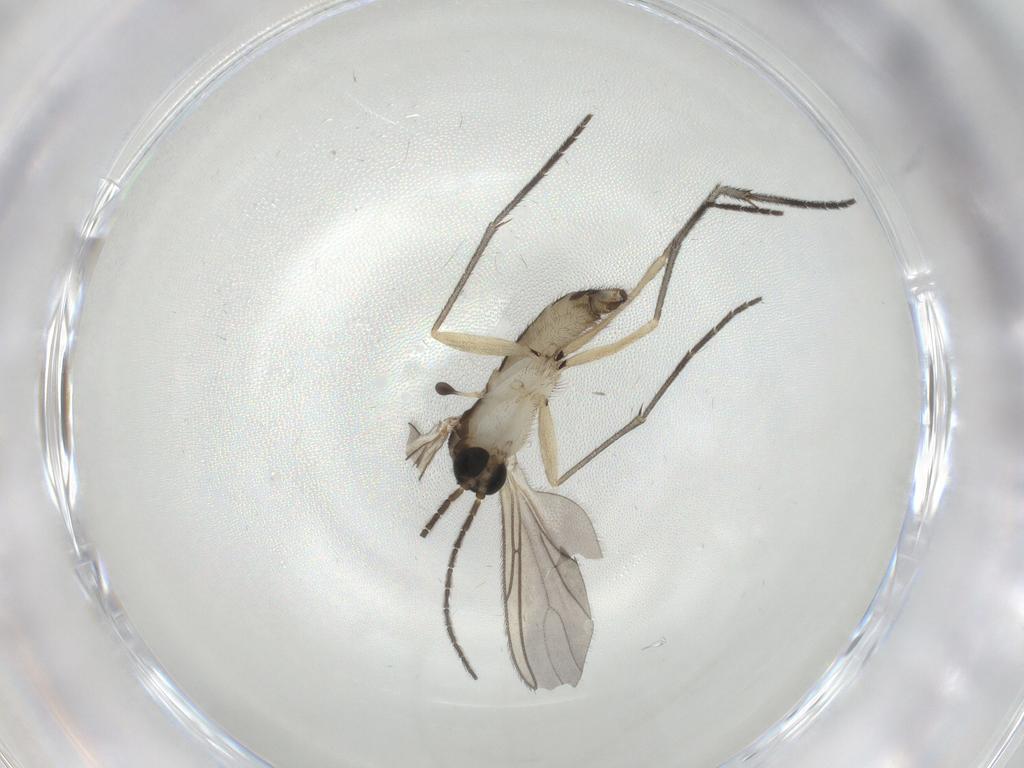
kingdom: Animalia
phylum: Arthropoda
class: Insecta
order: Diptera
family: Sciaridae
